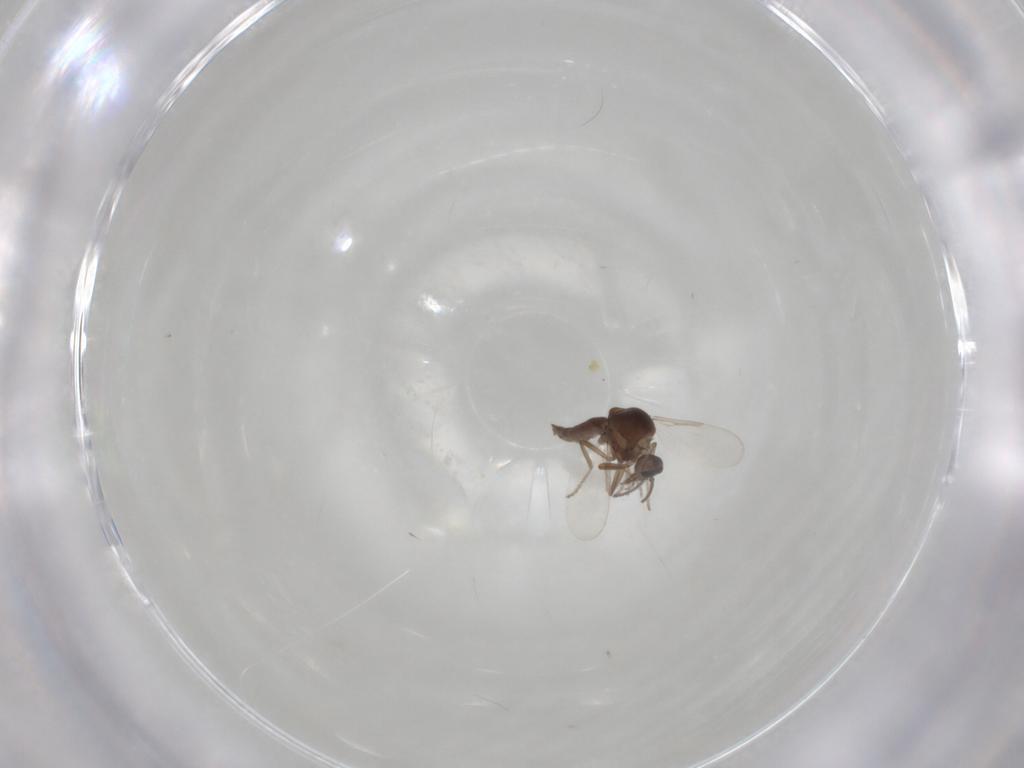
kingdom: Animalia
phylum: Arthropoda
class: Insecta
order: Diptera
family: Ceratopogonidae
